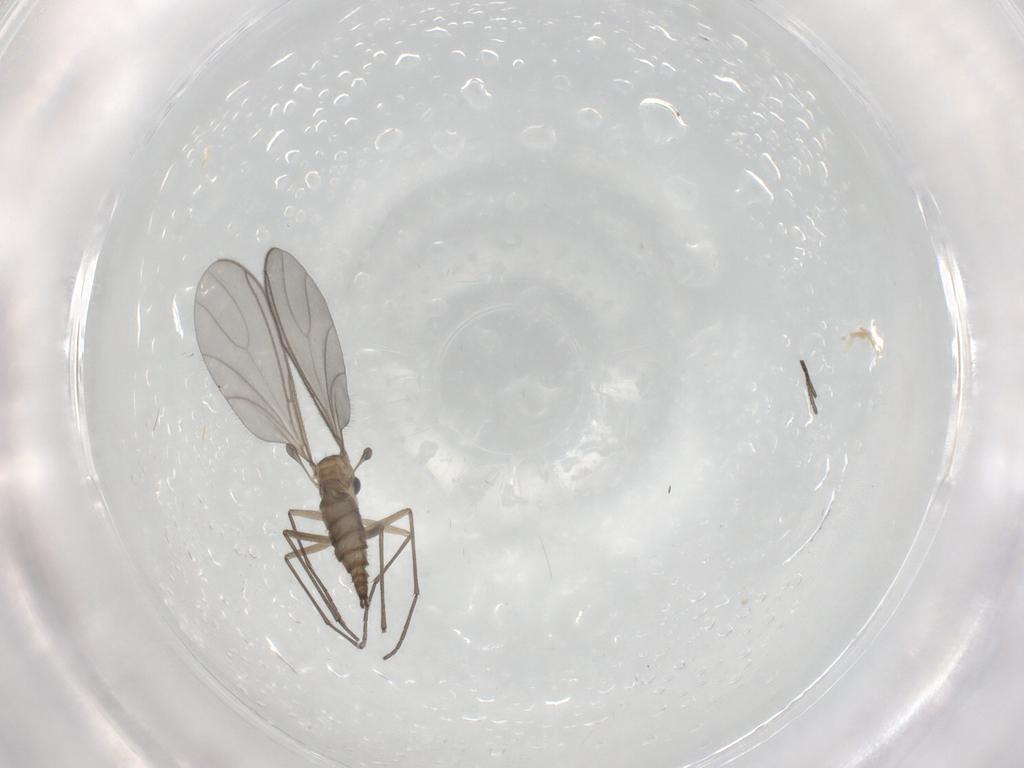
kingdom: Animalia
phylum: Arthropoda
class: Insecta
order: Diptera
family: Sciaridae
